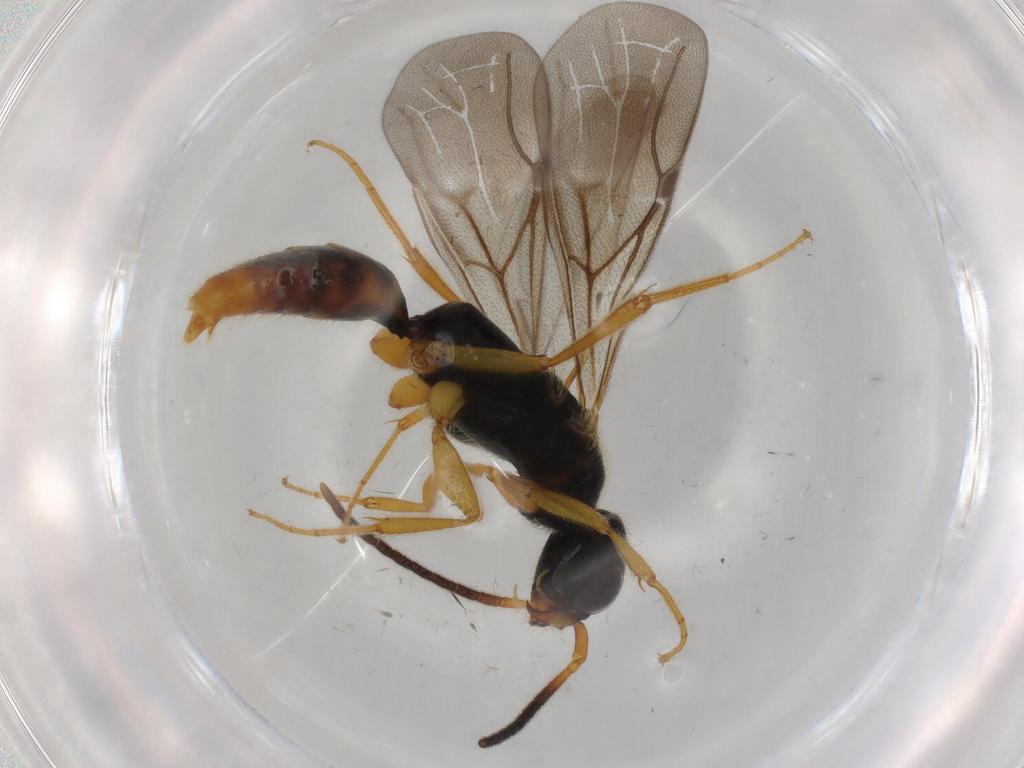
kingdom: Animalia
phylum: Arthropoda
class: Insecta
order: Hymenoptera
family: Bethylidae
